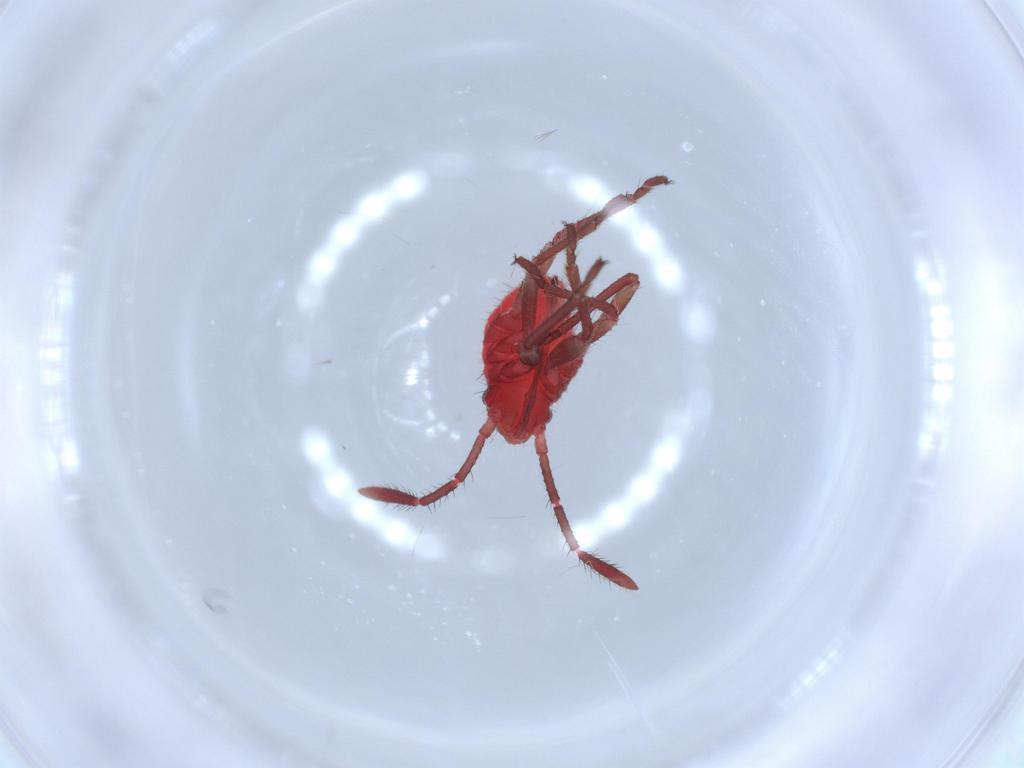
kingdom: Animalia
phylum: Arthropoda
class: Insecta
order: Hemiptera
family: Rhopalidae
